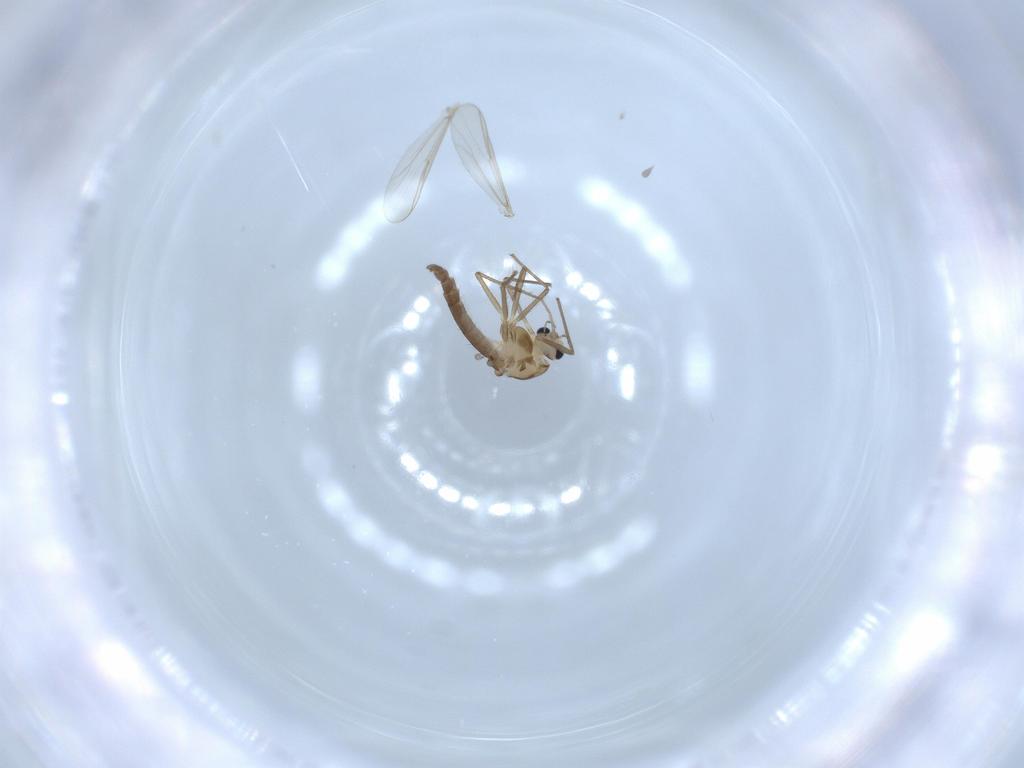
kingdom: Animalia
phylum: Arthropoda
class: Insecta
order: Diptera
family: Chironomidae
